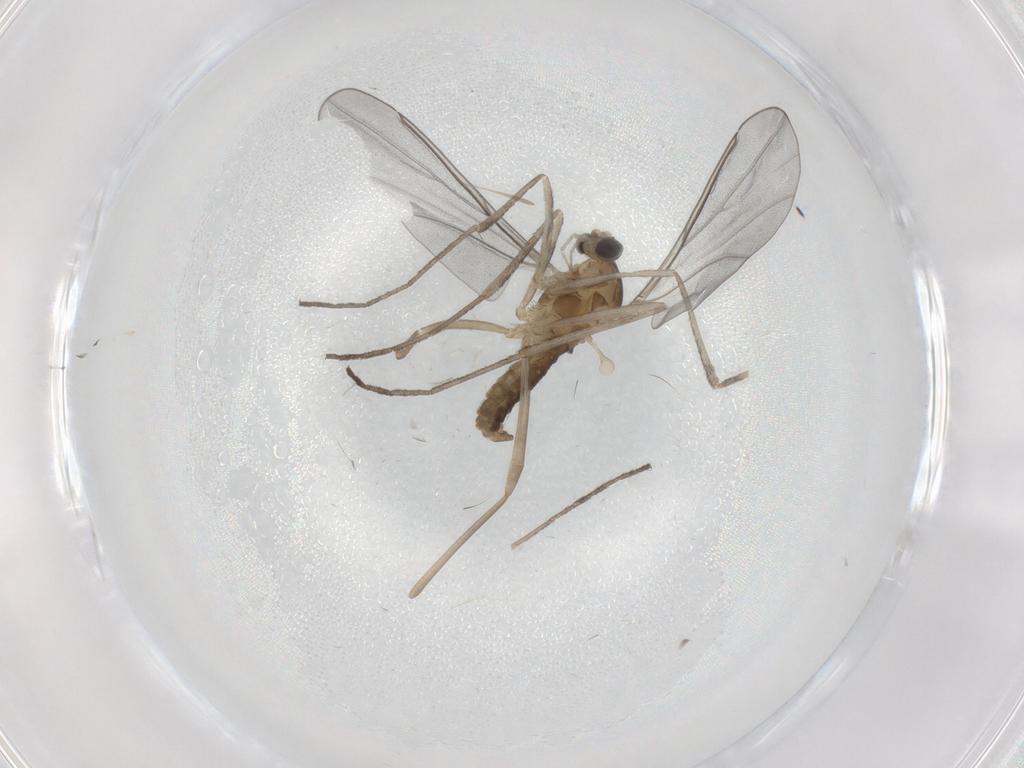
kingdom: Animalia
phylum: Arthropoda
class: Insecta
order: Diptera
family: Cecidomyiidae
